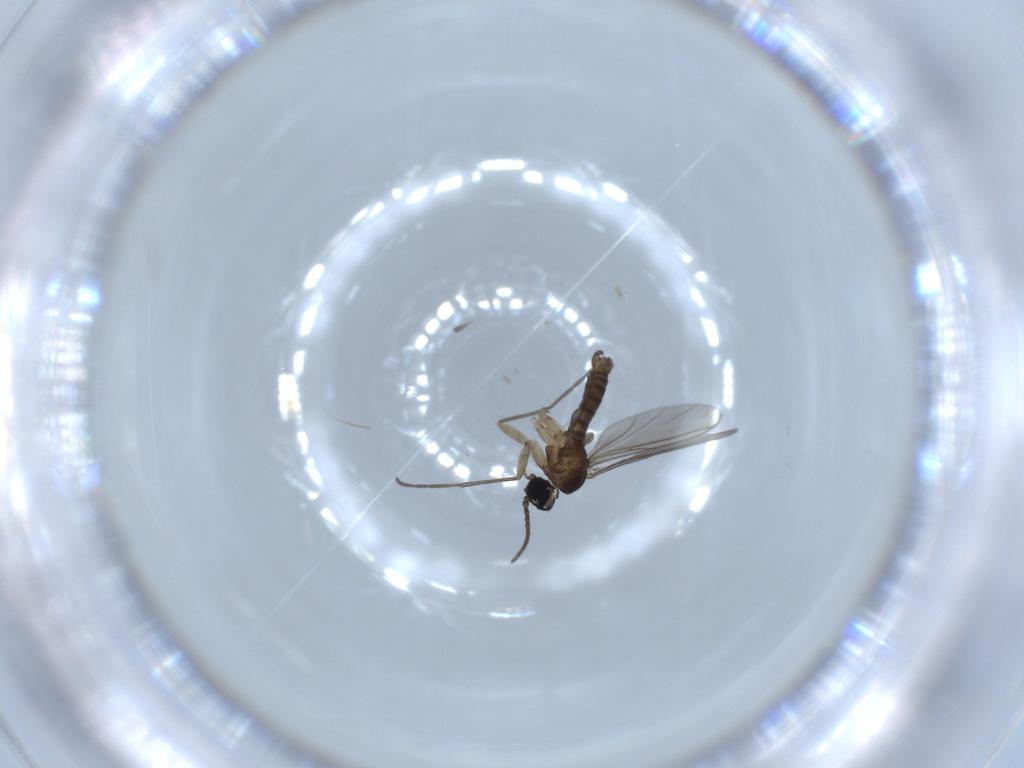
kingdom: Animalia
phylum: Arthropoda
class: Insecta
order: Diptera
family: Sciaridae
